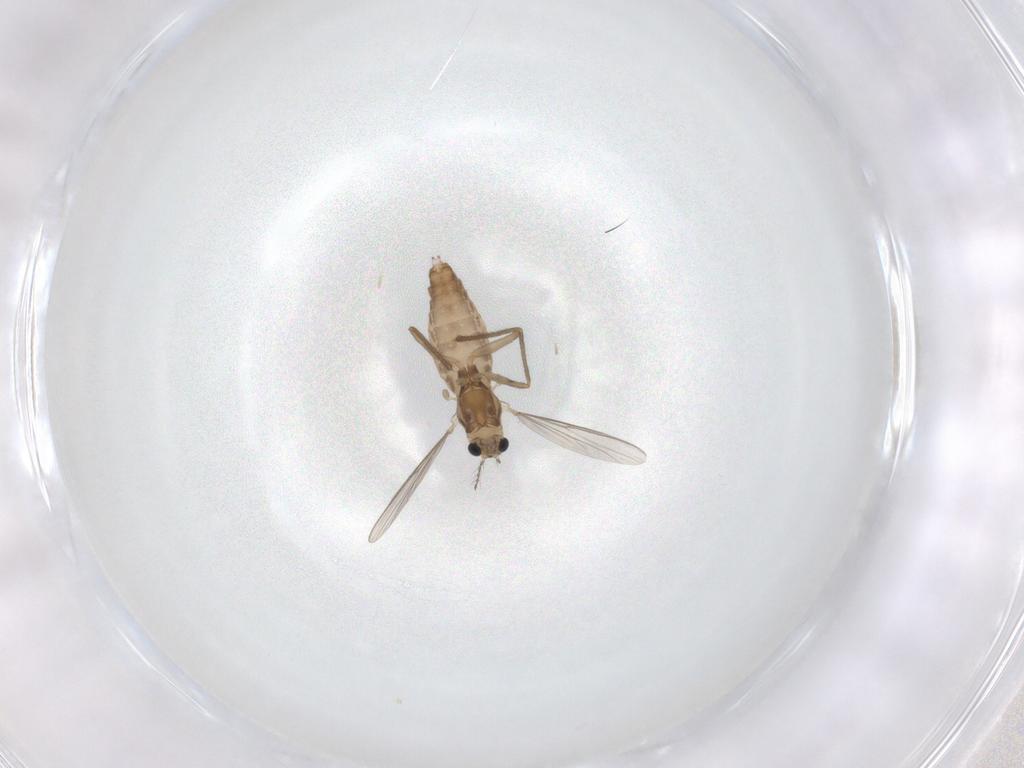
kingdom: Animalia
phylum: Arthropoda
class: Insecta
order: Diptera
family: Chironomidae
